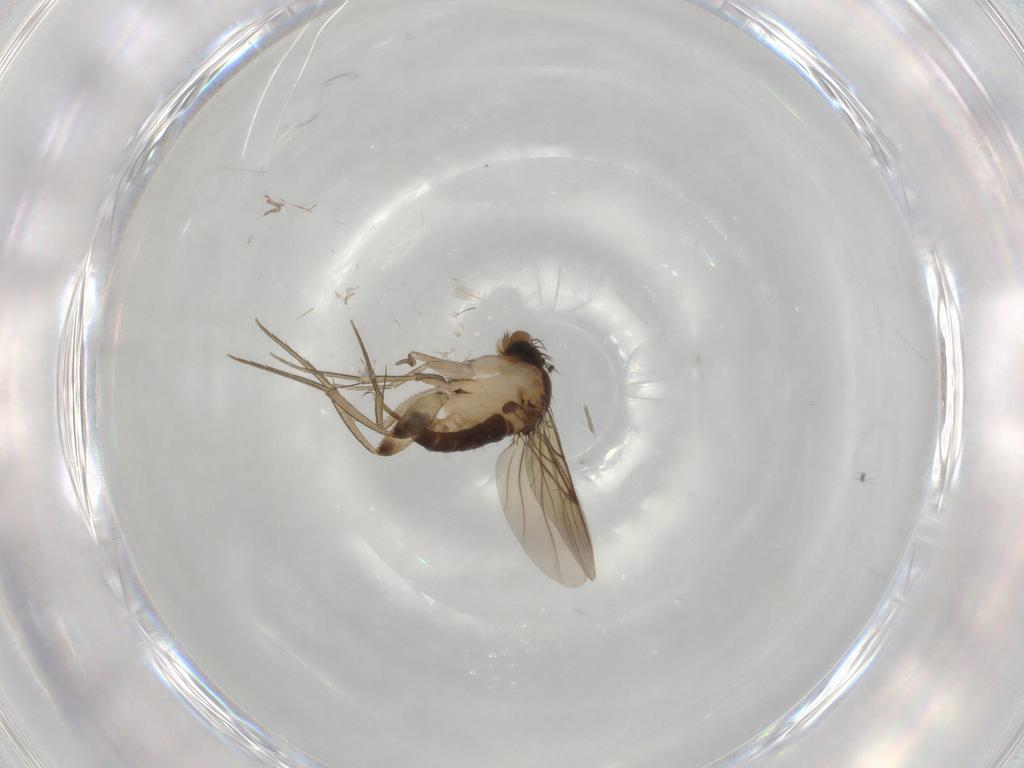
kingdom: Animalia
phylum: Arthropoda
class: Insecta
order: Diptera
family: Phoridae
